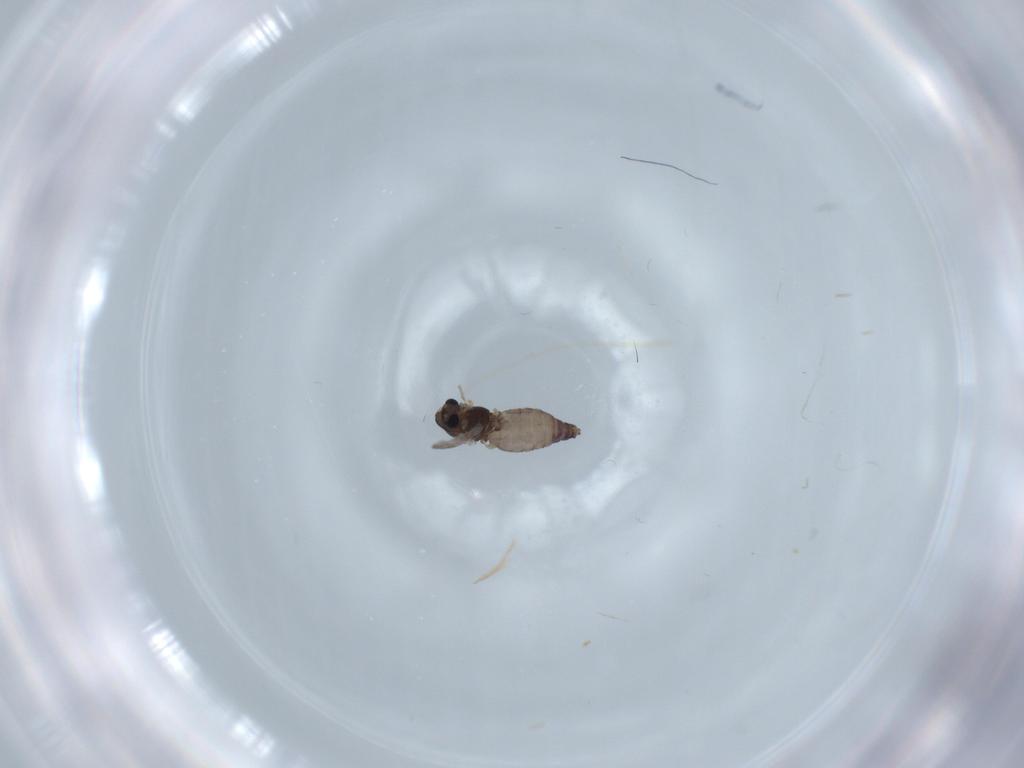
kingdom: Animalia
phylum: Arthropoda
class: Insecta
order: Diptera
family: Chironomidae
